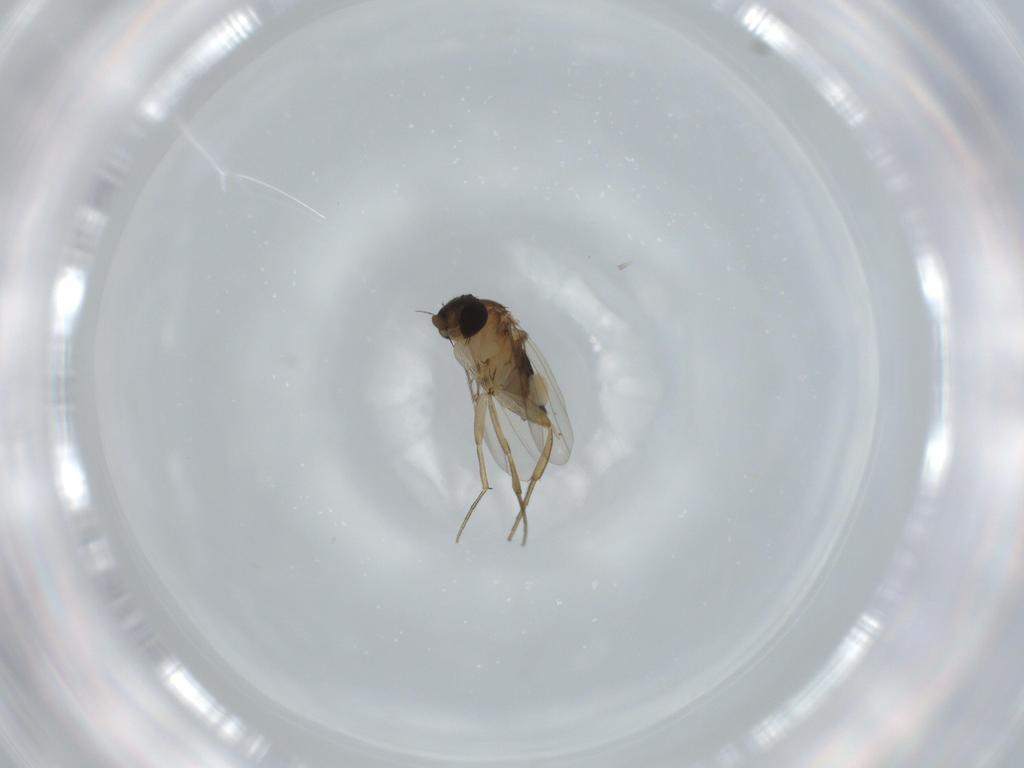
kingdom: Animalia
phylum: Arthropoda
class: Insecta
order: Diptera
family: Phoridae
